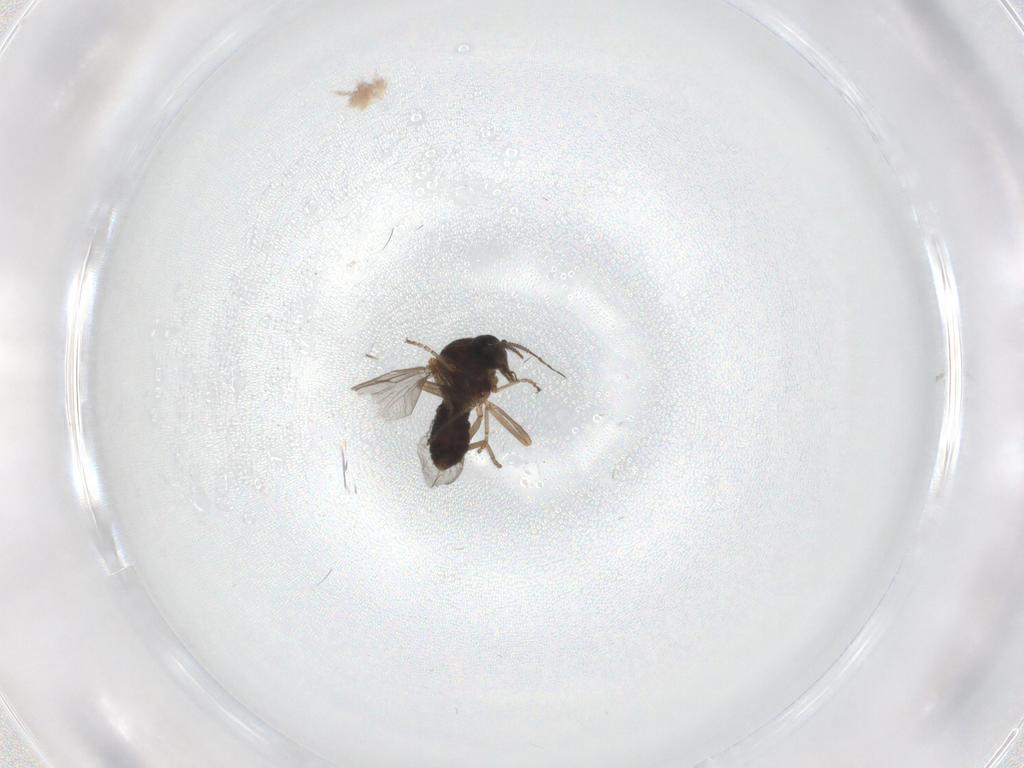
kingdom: Animalia
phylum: Arthropoda
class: Insecta
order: Diptera
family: Ceratopogonidae
